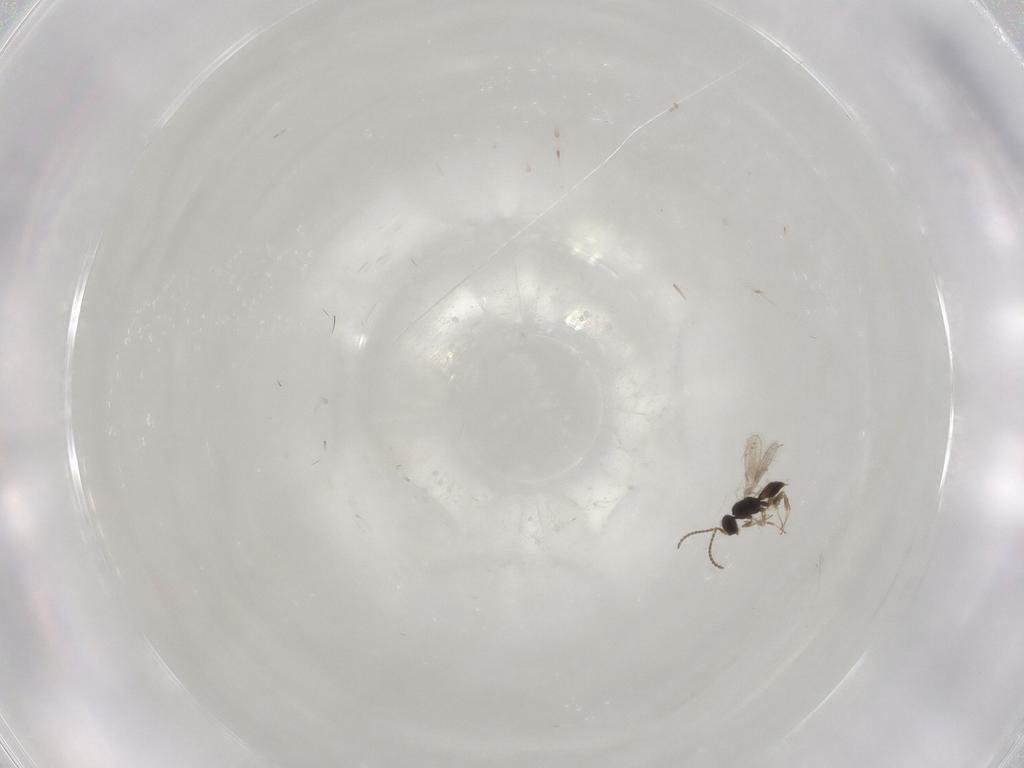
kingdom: Animalia
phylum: Arthropoda
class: Insecta
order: Hymenoptera
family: Scelionidae
